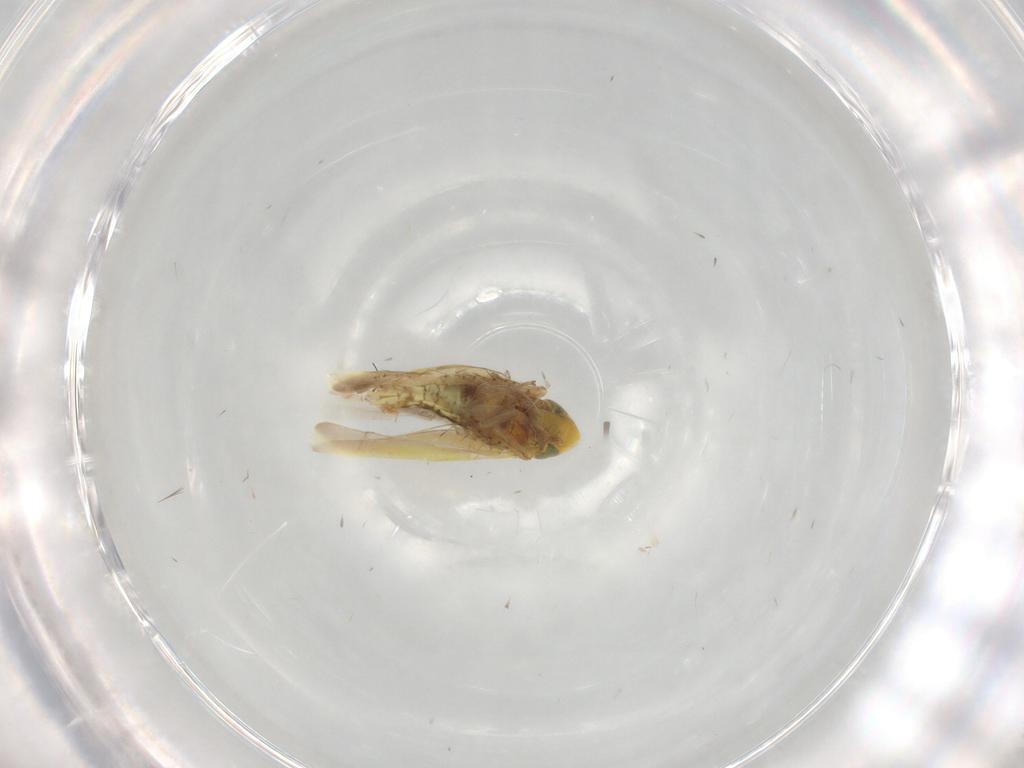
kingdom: Animalia
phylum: Arthropoda
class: Insecta
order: Hemiptera
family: Cicadellidae
